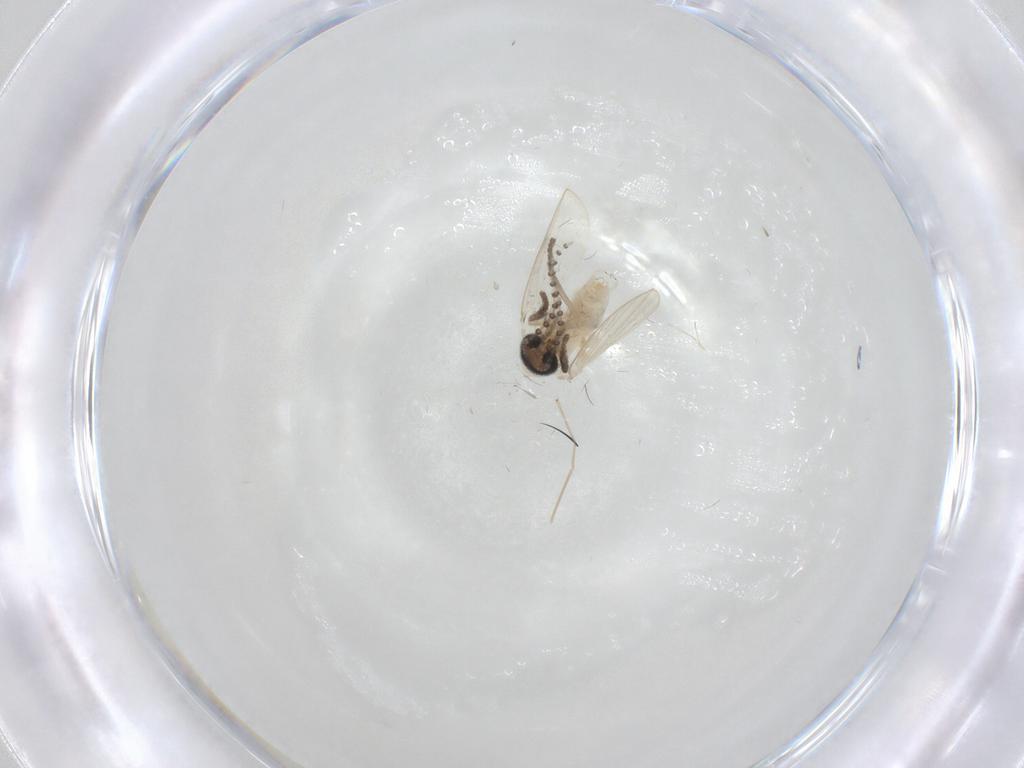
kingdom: Animalia
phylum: Arthropoda
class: Insecta
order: Diptera
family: Psychodidae
